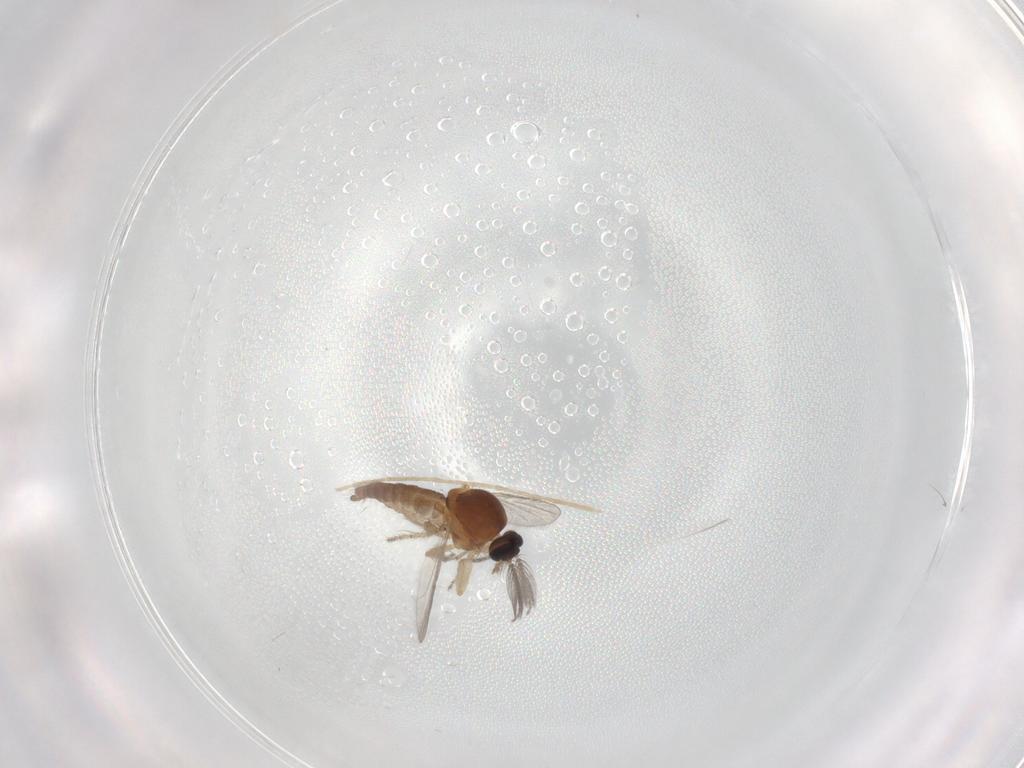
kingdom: Animalia
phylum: Arthropoda
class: Insecta
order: Diptera
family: Ceratopogonidae
